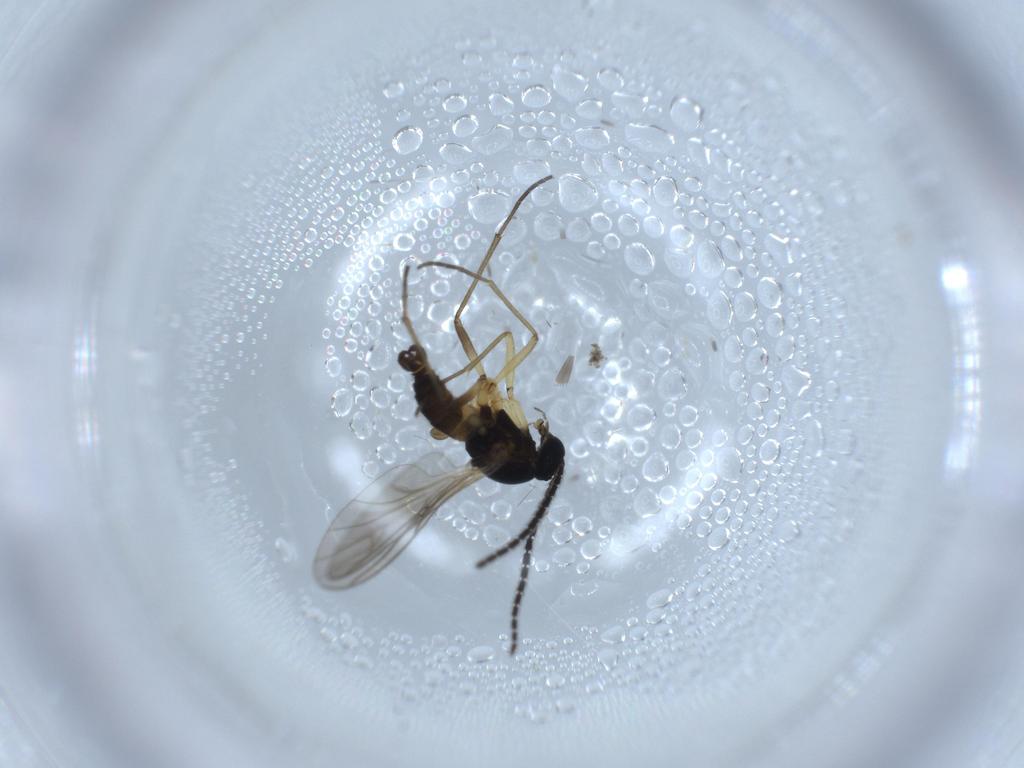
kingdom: Animalia
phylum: Arthropoda
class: Insecta
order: Diptera
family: Sciaridae
